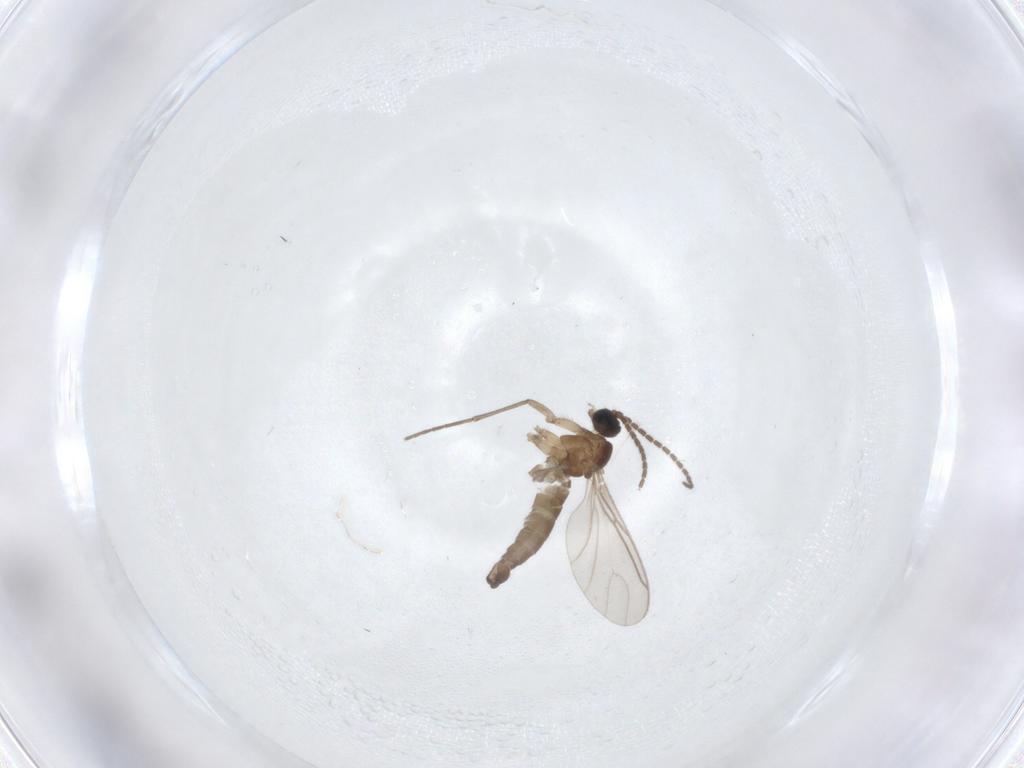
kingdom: Animalia
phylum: Arthropoda
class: Insecta
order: Diptera
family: Sciaridae
